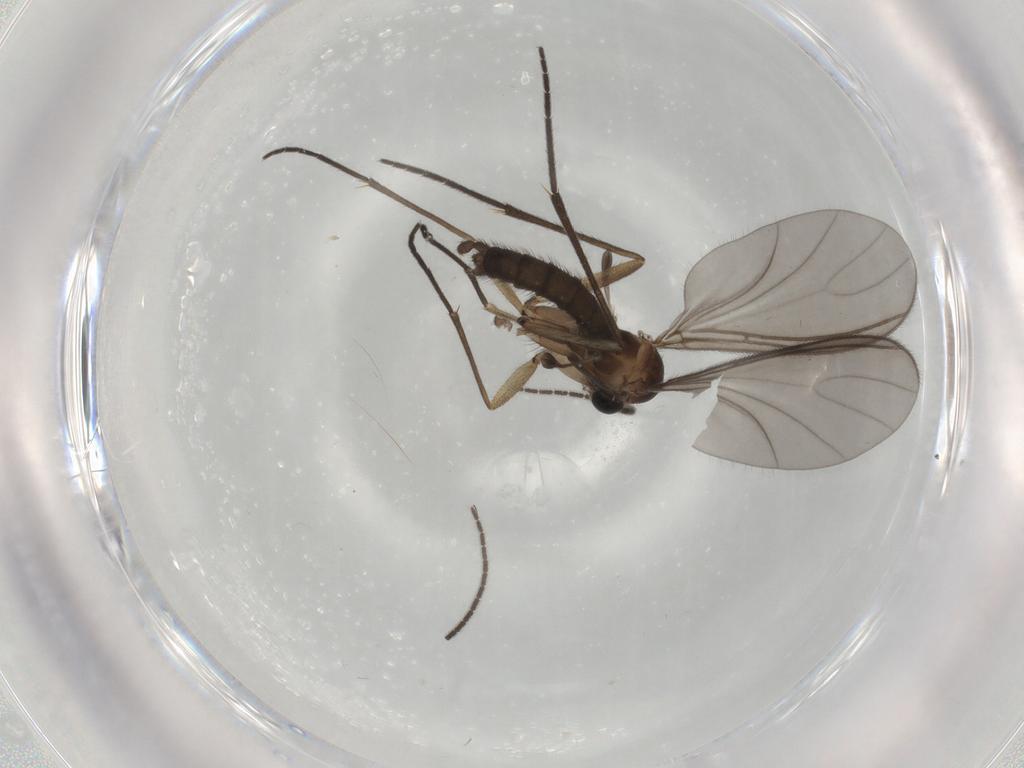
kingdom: Animalia
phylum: Arthropoda
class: Insecta
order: Diptera
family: Sciaridae
